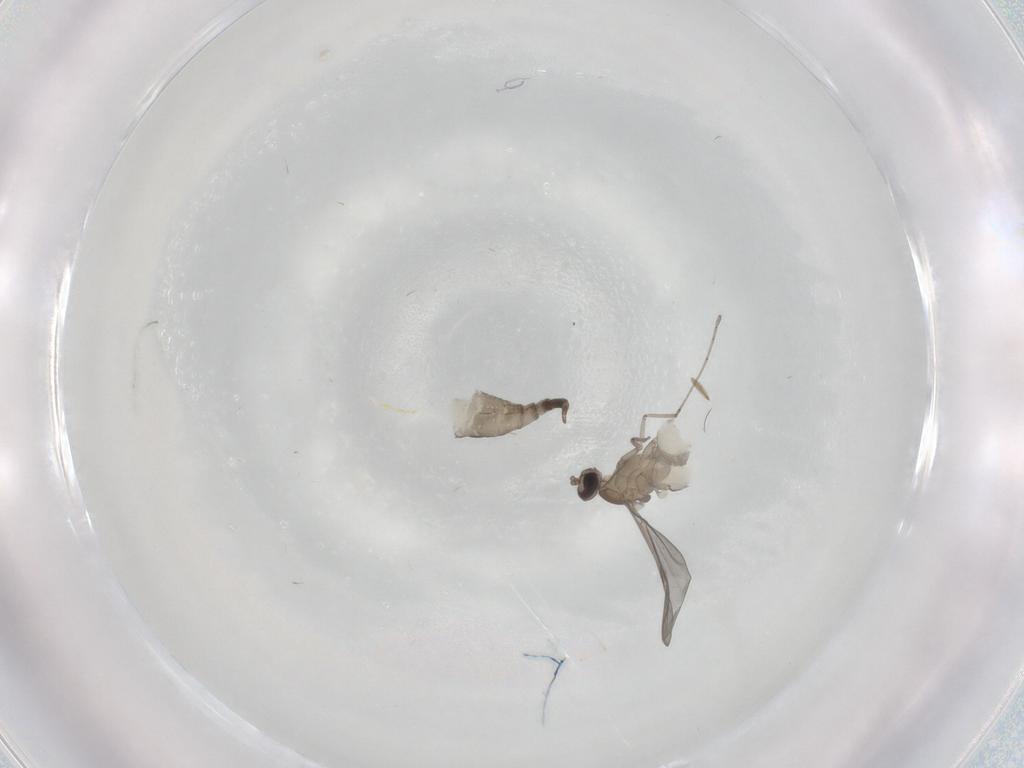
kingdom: Animalia
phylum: Arthropoda
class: Insecta
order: Diptera
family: Cecidomyiidae
